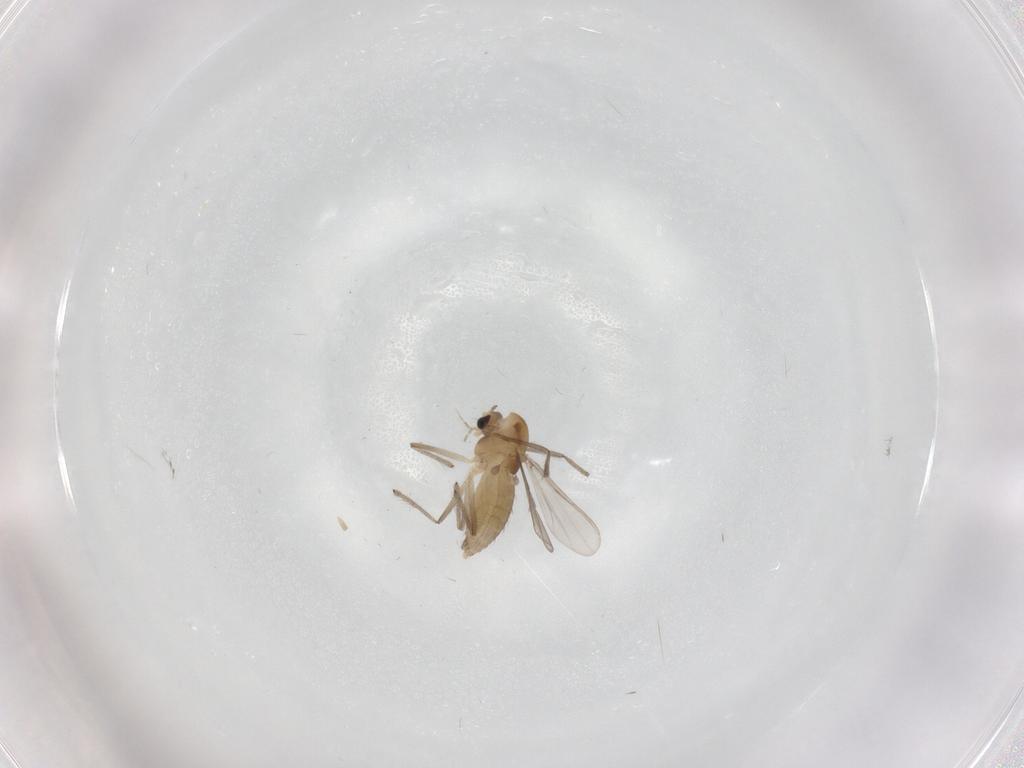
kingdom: Animalia
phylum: Arthropoda
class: Insecta
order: Diptera
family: Chironomidae
